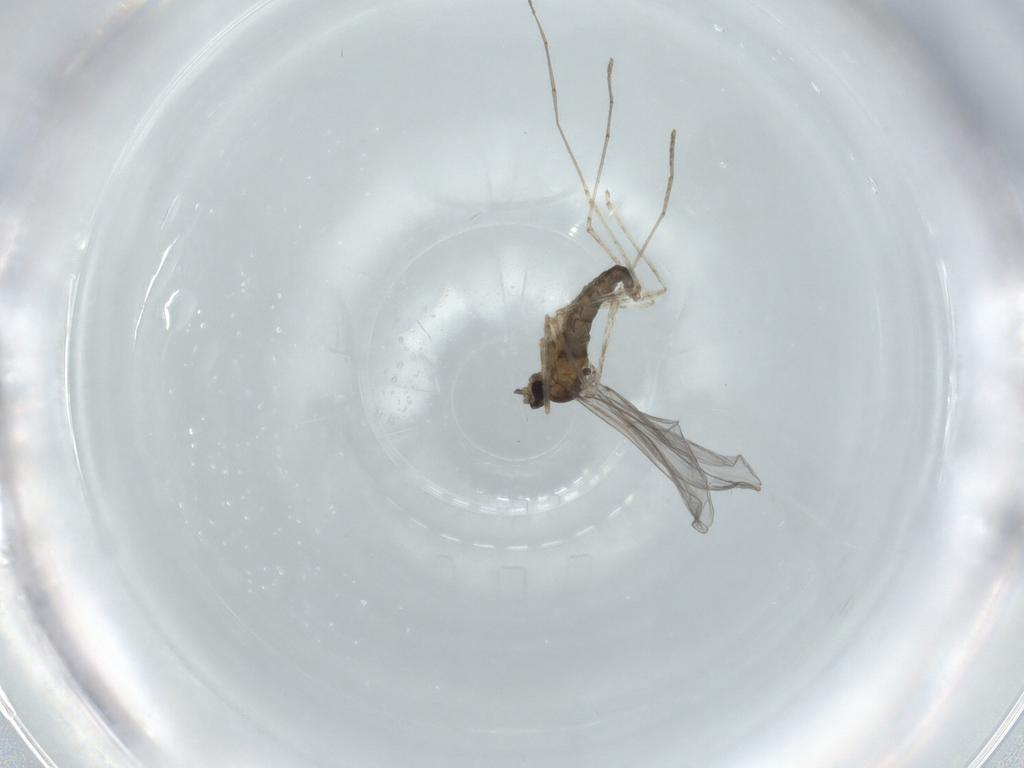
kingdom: Animalia
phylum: Arthropoda
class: Insecta
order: Diptera
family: Cecidomyiidae
